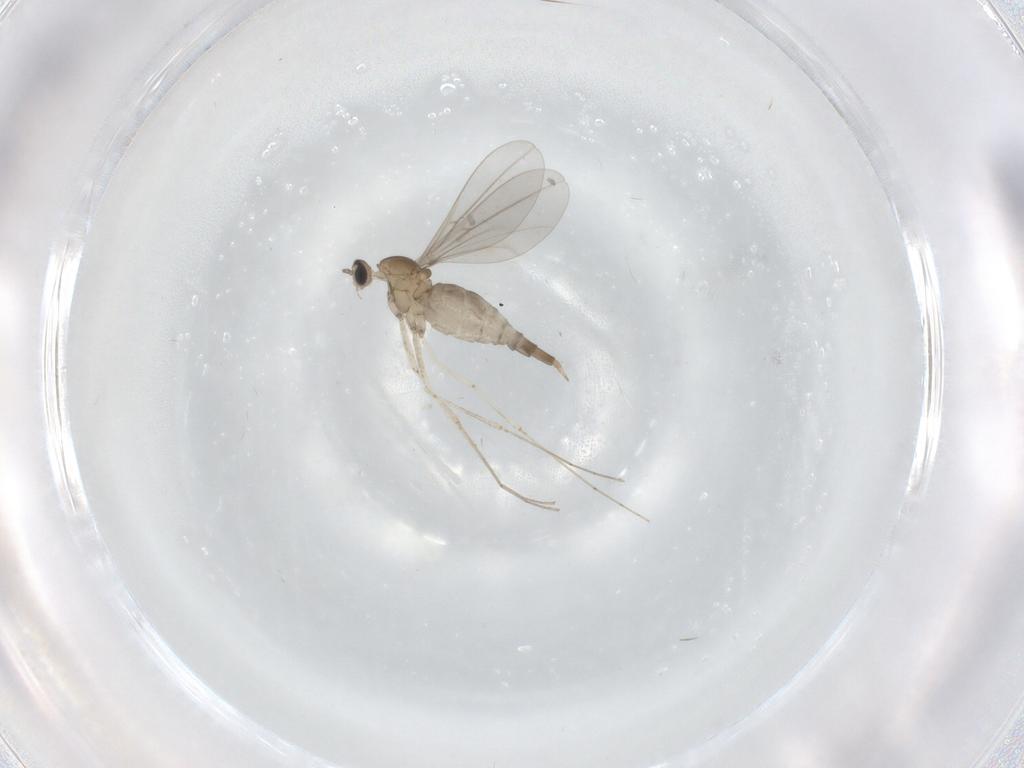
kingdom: Animalia
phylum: Arthropoda
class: Insecta
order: Diptera
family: Cecidomyiidae
